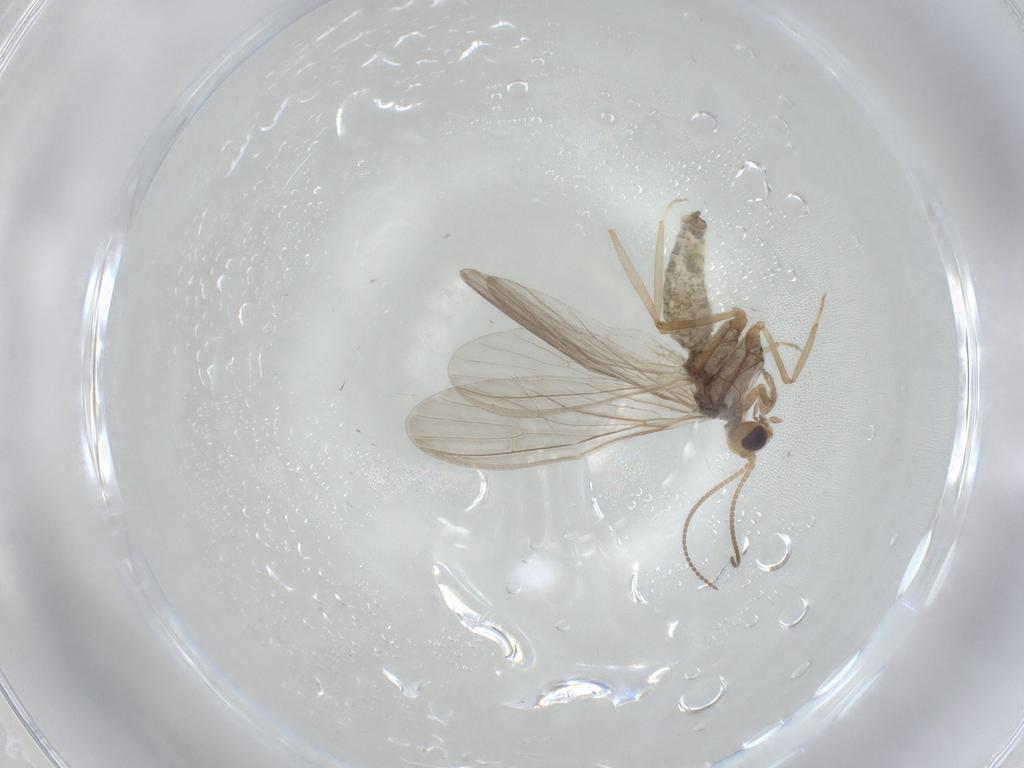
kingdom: Animalia
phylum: Arthropoda
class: Insecta
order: Neuroptera
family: Coniopterygidae
